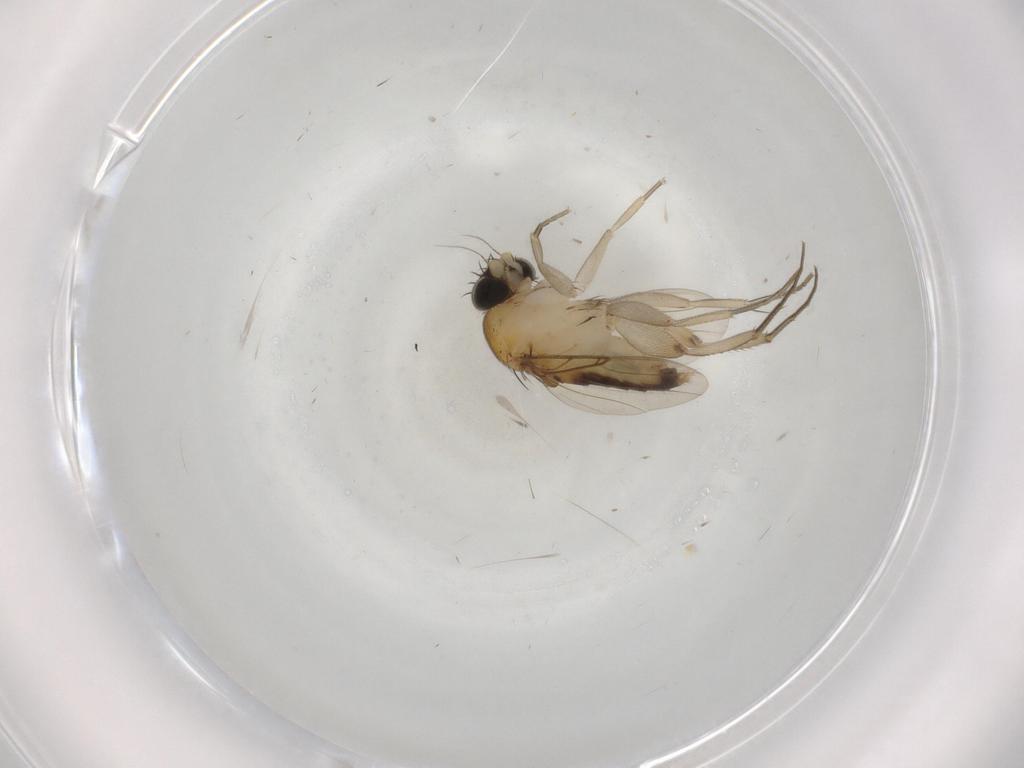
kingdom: Animalia
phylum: Arthropoda
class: Insecta
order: Diptera
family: Phoridae
